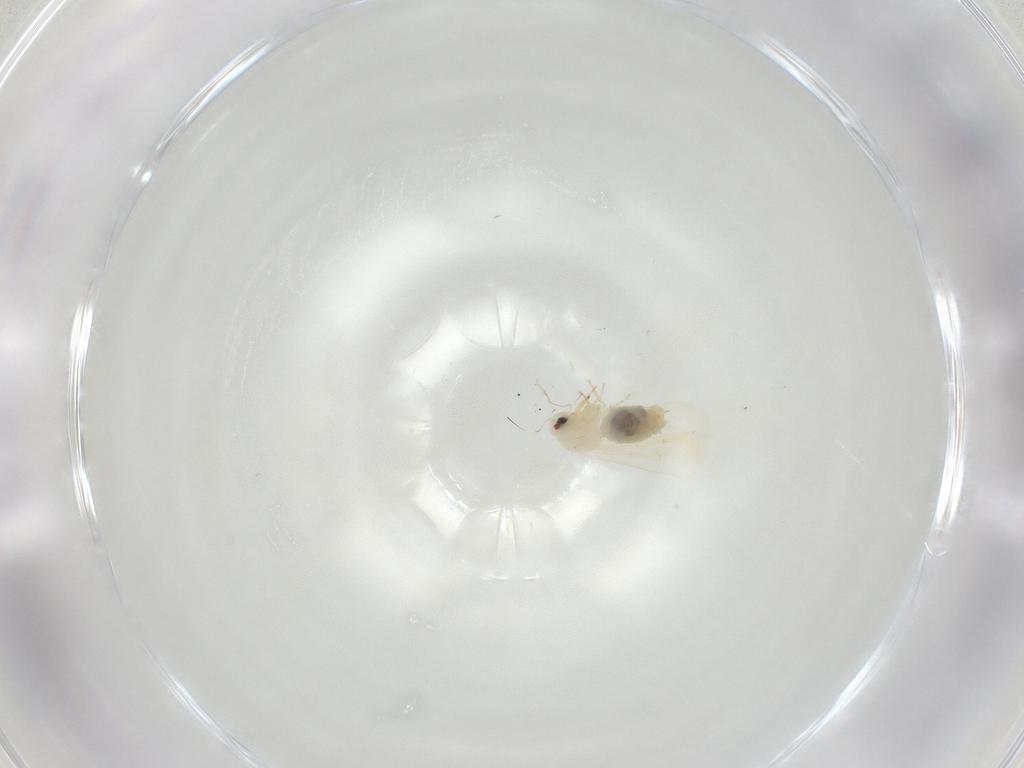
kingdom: Animalia
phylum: Arthropoda
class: Insecta
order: Hemiptera
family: Aleyrodidae
